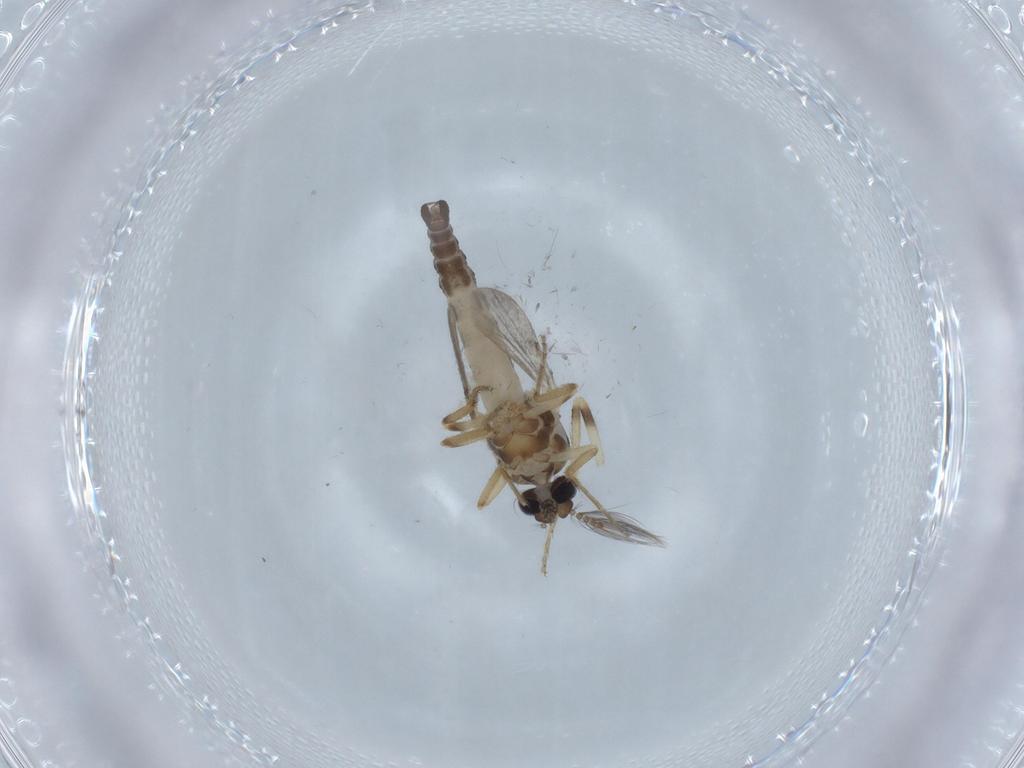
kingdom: Animalia
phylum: Arthropoda
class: Insecta
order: Diptera
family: Ceratopogonidae
